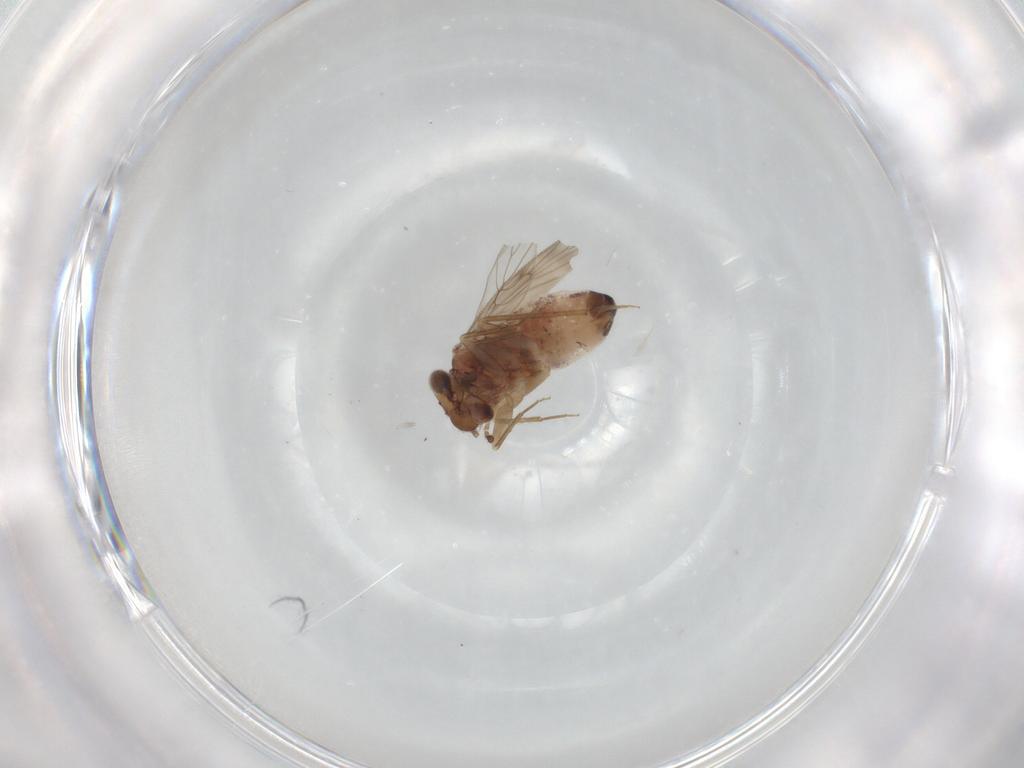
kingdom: Animalia
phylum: Arthropoda
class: Insecta
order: Psocodea
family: Lepidopsocidae
